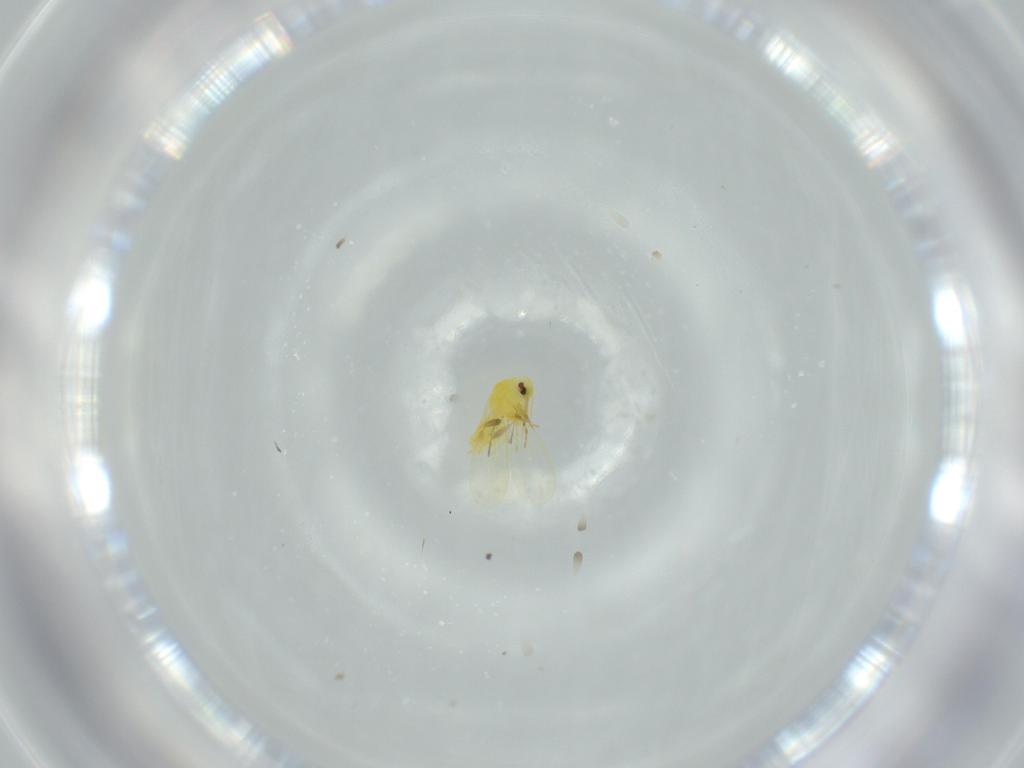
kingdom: Animalia
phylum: Arthropoda
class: Insecta
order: Hemiptera
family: Aleyrodidae
